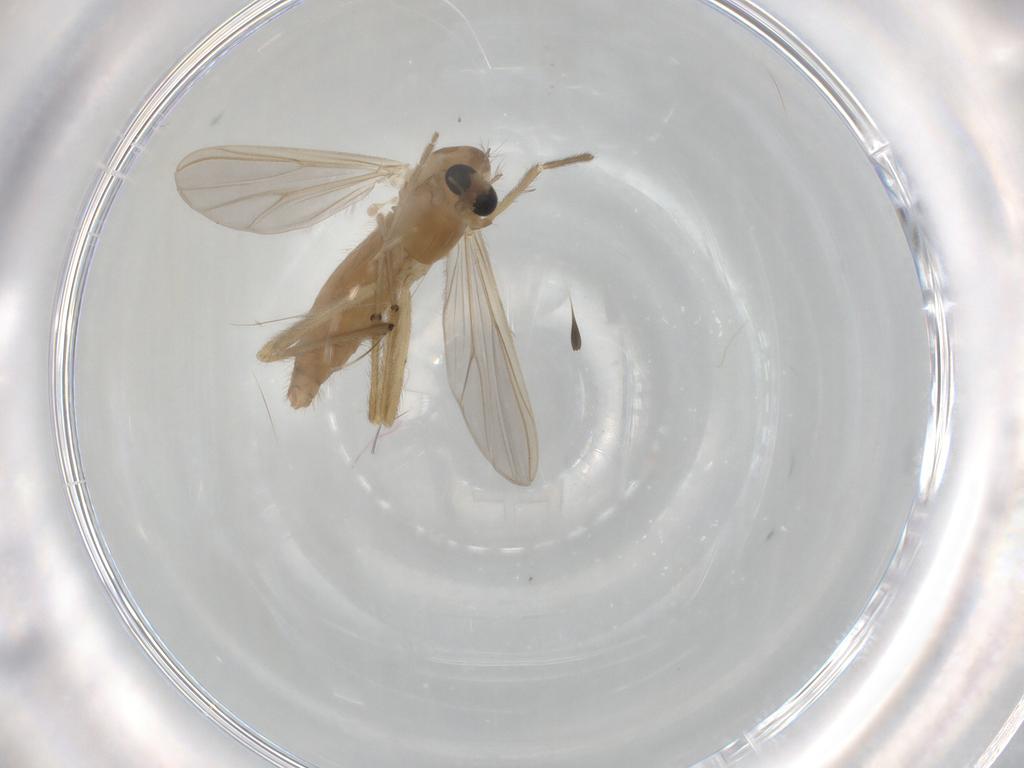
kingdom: Animalia
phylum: Arthropoda
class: Insecta
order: Diptera
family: Chironomidae
